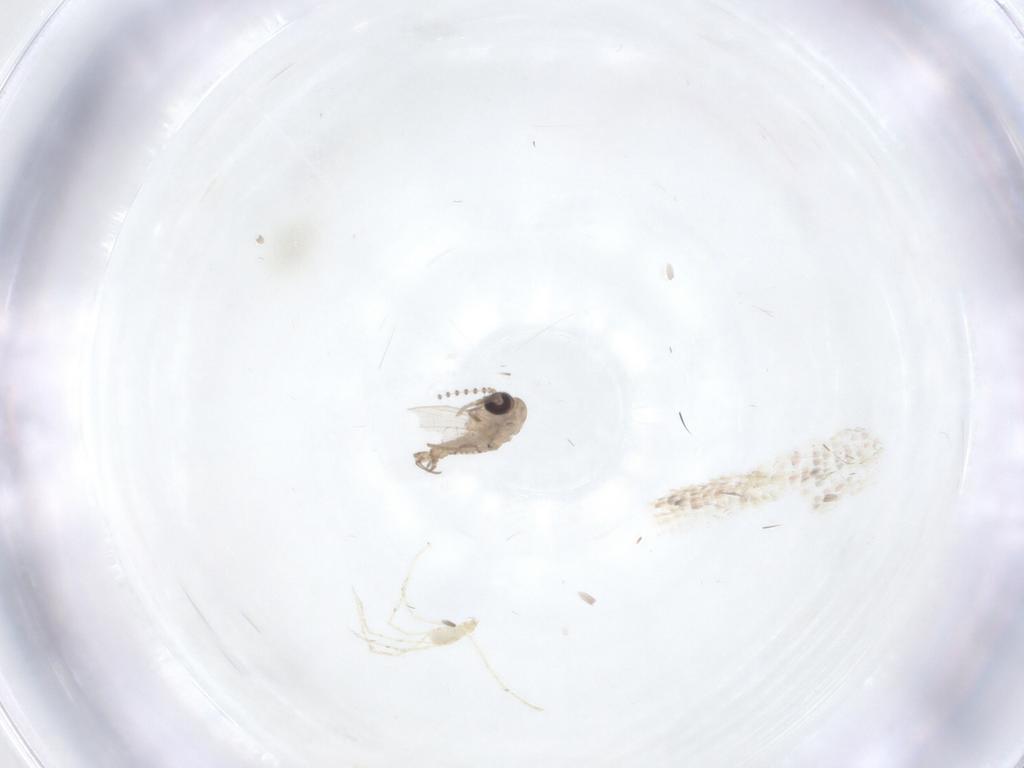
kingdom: Animalia
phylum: Arthropoda
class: Insecta
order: Diptera
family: Psychodidae
